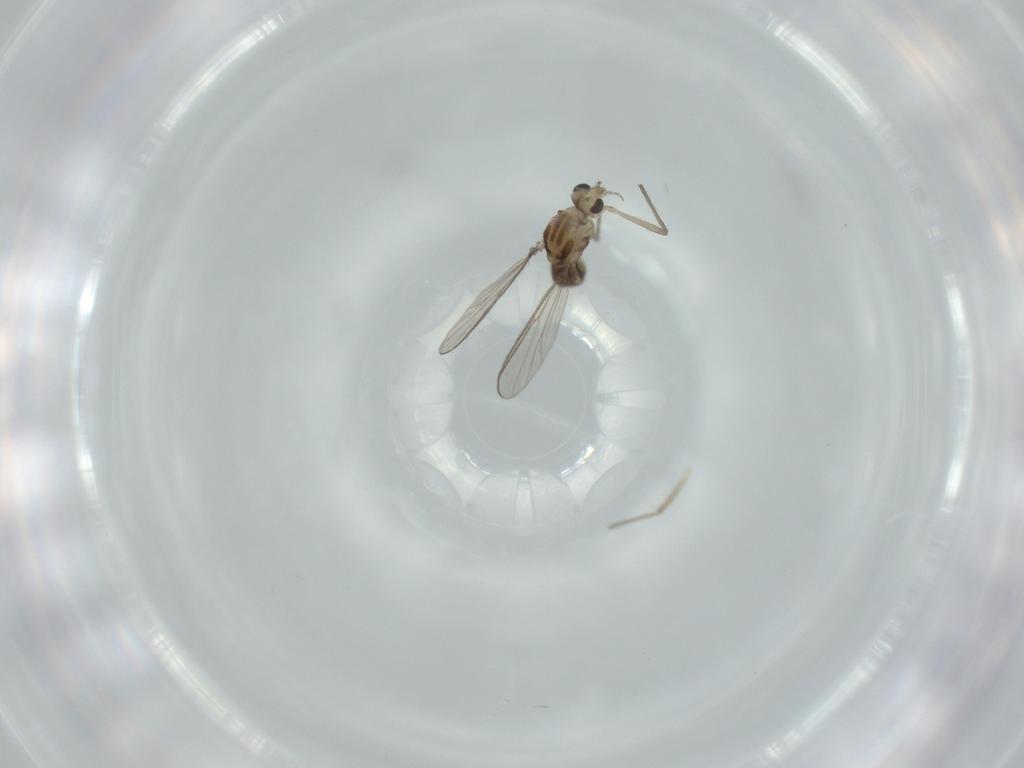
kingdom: Animalia
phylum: Arthropoda
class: Insecta
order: Diptera
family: Chironomidae
